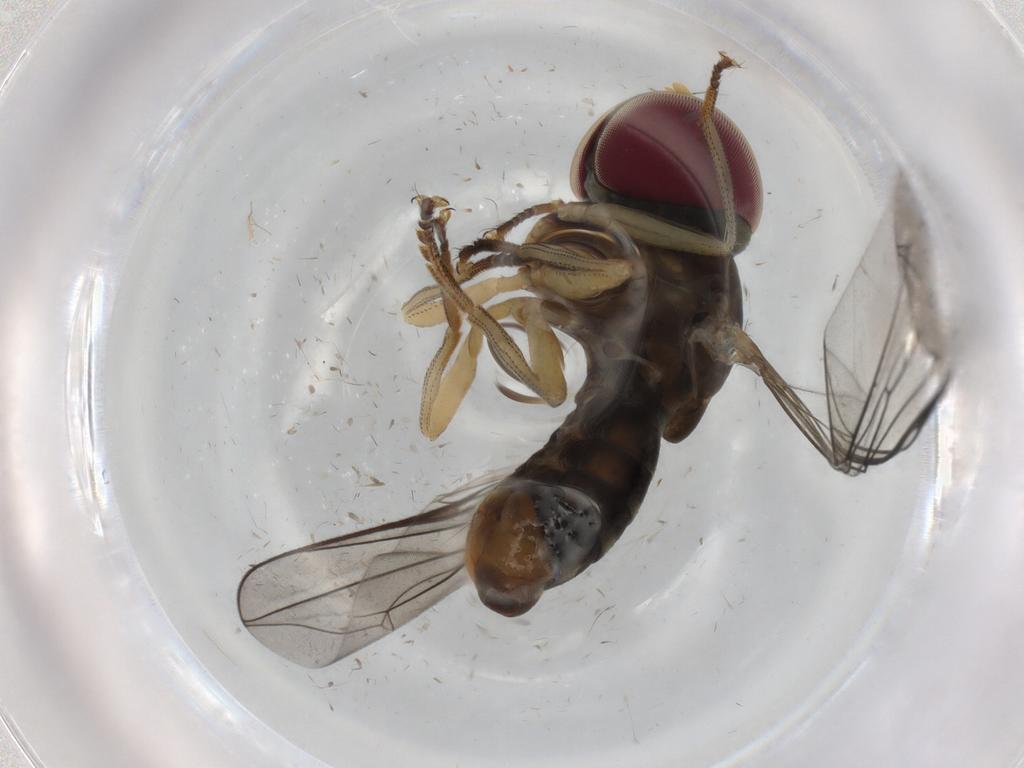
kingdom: Animalia
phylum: Arthropoda
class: Insecta
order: Diptera
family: Pipunculidae
